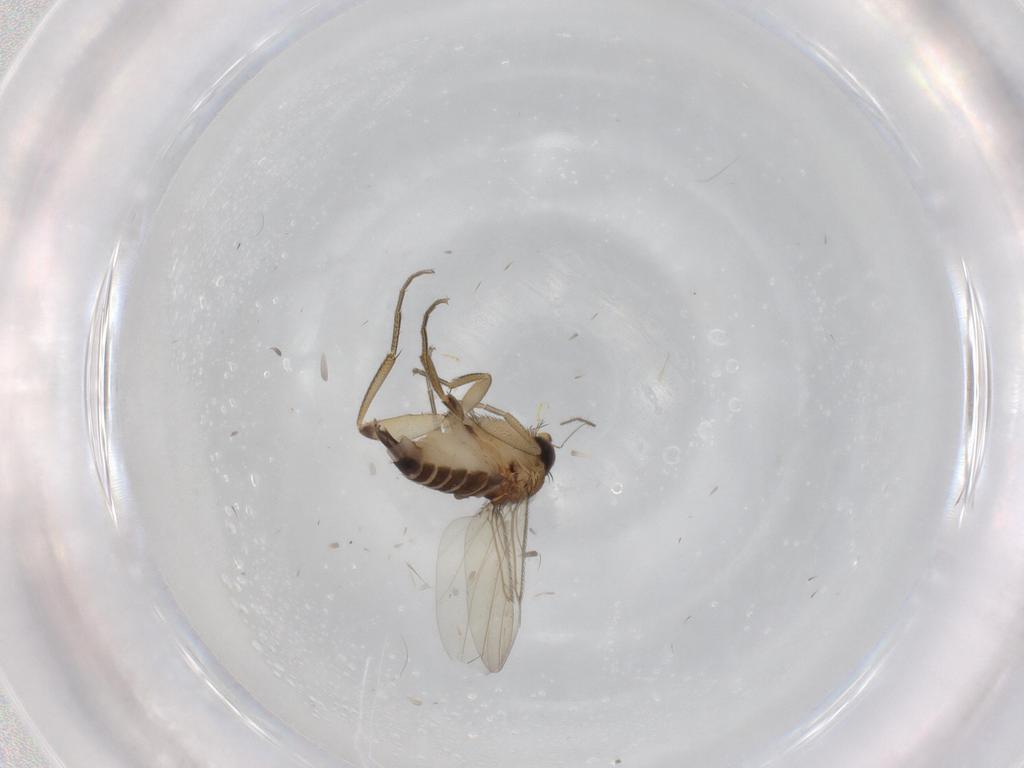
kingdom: Animalia
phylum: Arthropoda
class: Insecta
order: Diptera
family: Phoridae
